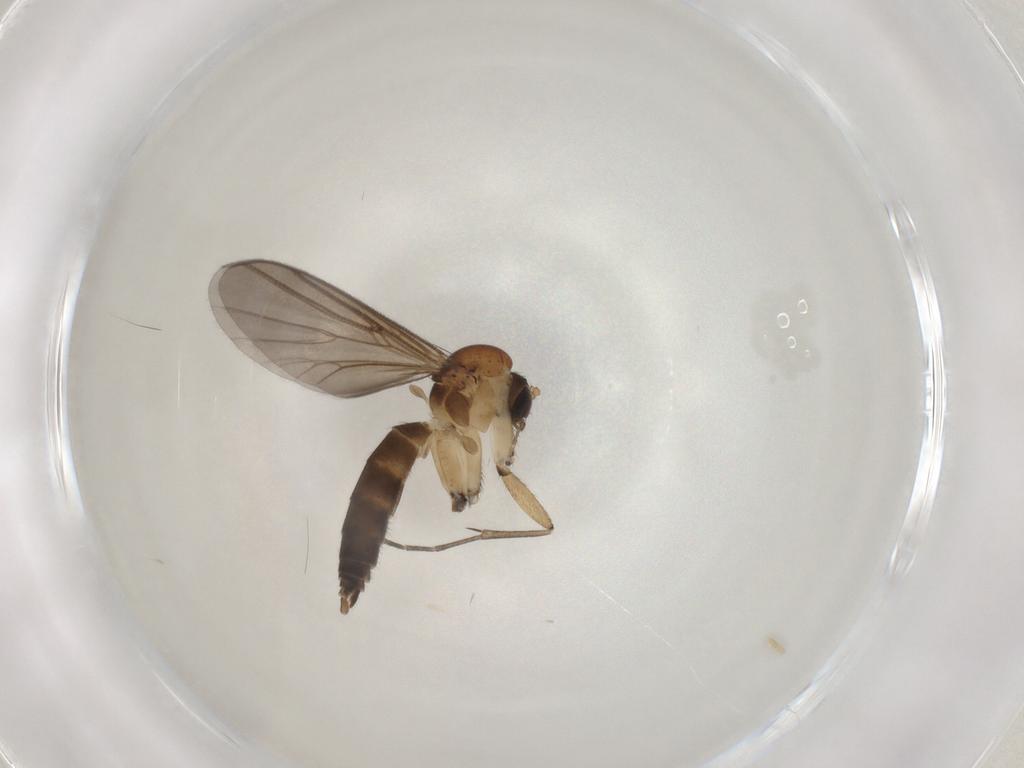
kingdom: Animalia
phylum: Arthropoda
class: Insecta
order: Diptera
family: Mycetophilidae
